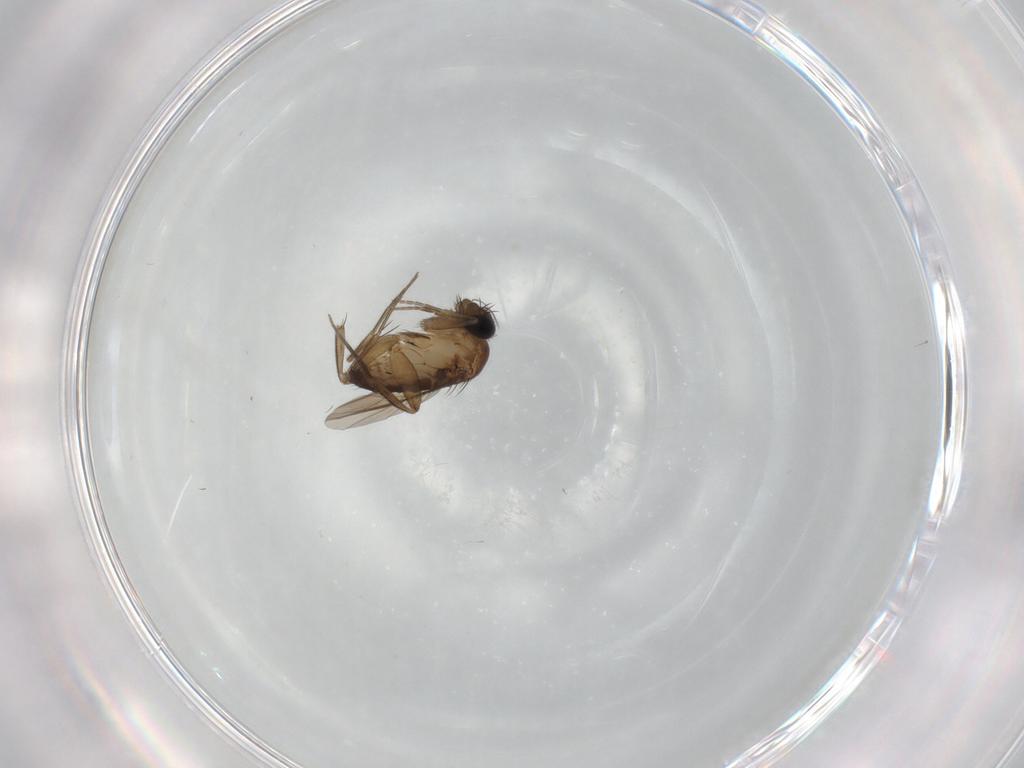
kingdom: Animalia
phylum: Arthropoda
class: Insecta
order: Diptera
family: Phoridae
